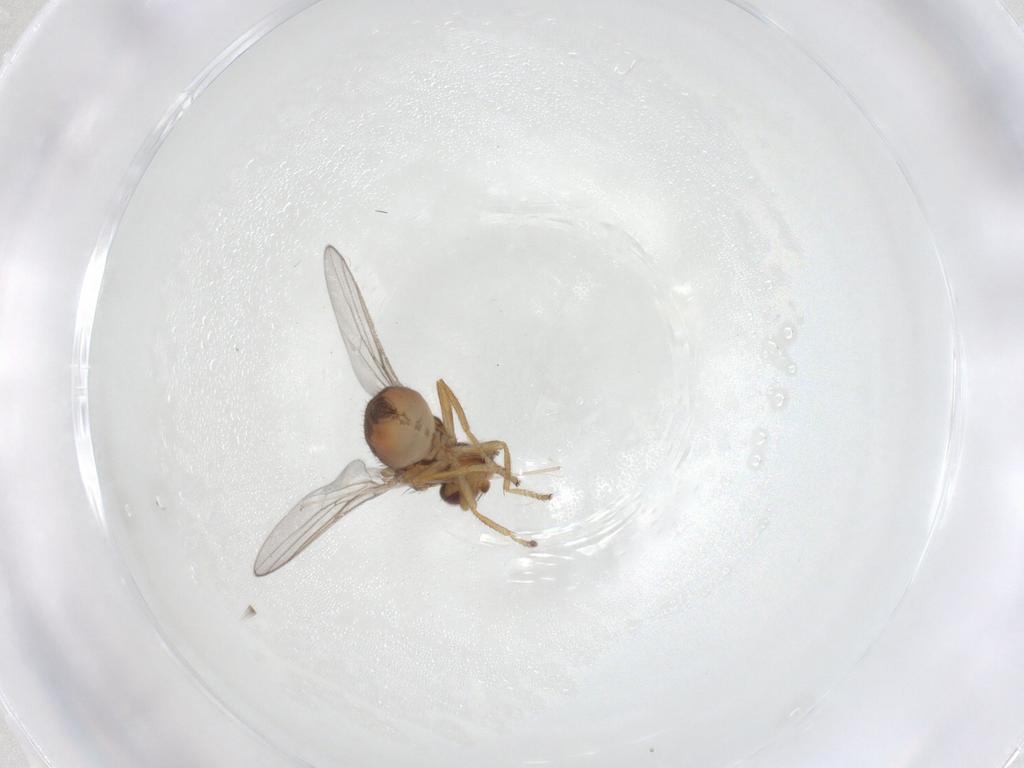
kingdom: Animalia
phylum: Arthropoda
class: Insecta
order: Diptera
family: Chloropidae
